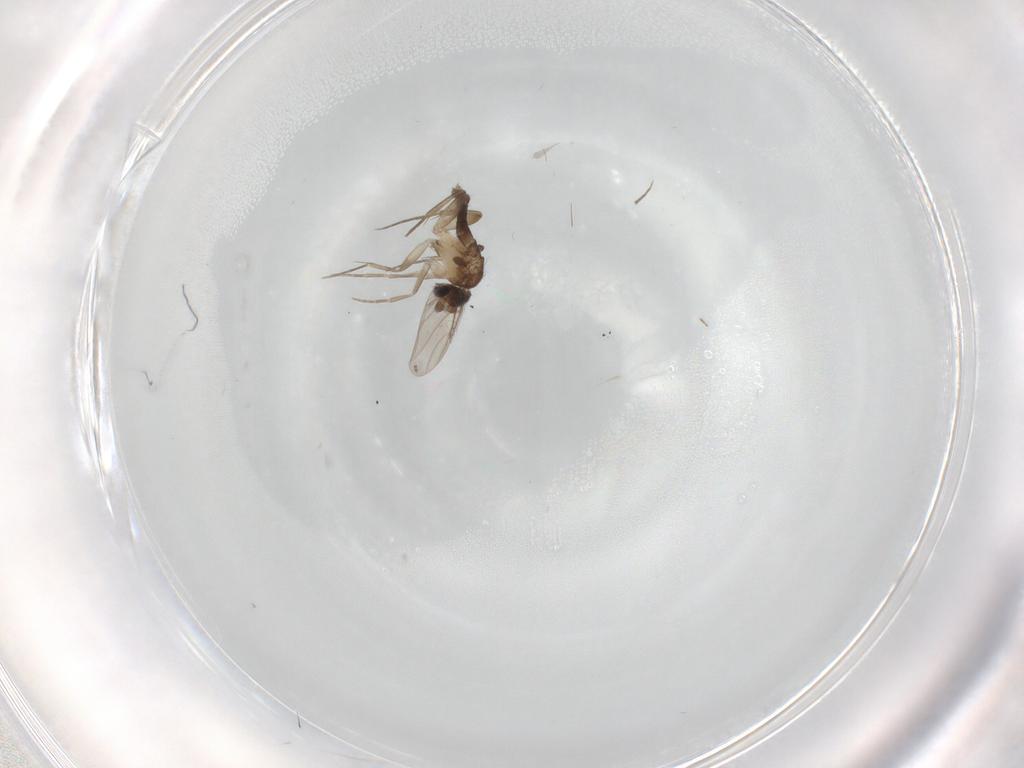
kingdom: Animalia
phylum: Arthropoda
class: Insecta
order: Diptera
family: Phoridae
